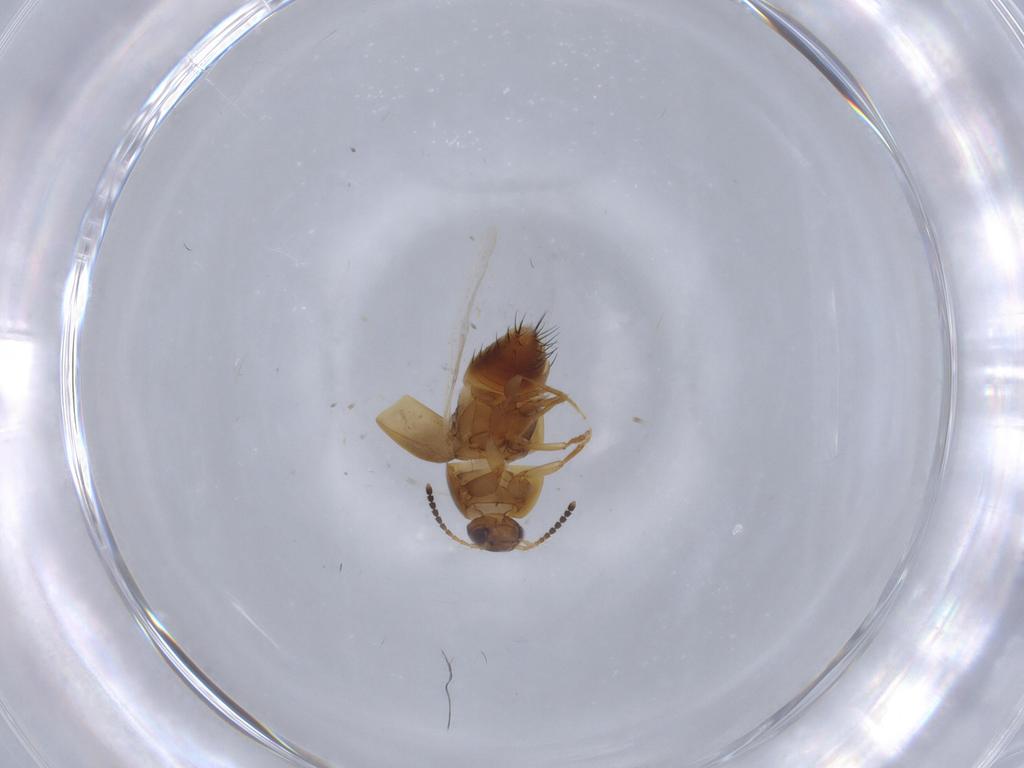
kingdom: Animalia
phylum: Arthropoda
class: Insecta
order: Coleoptera
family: Staphylinidae
